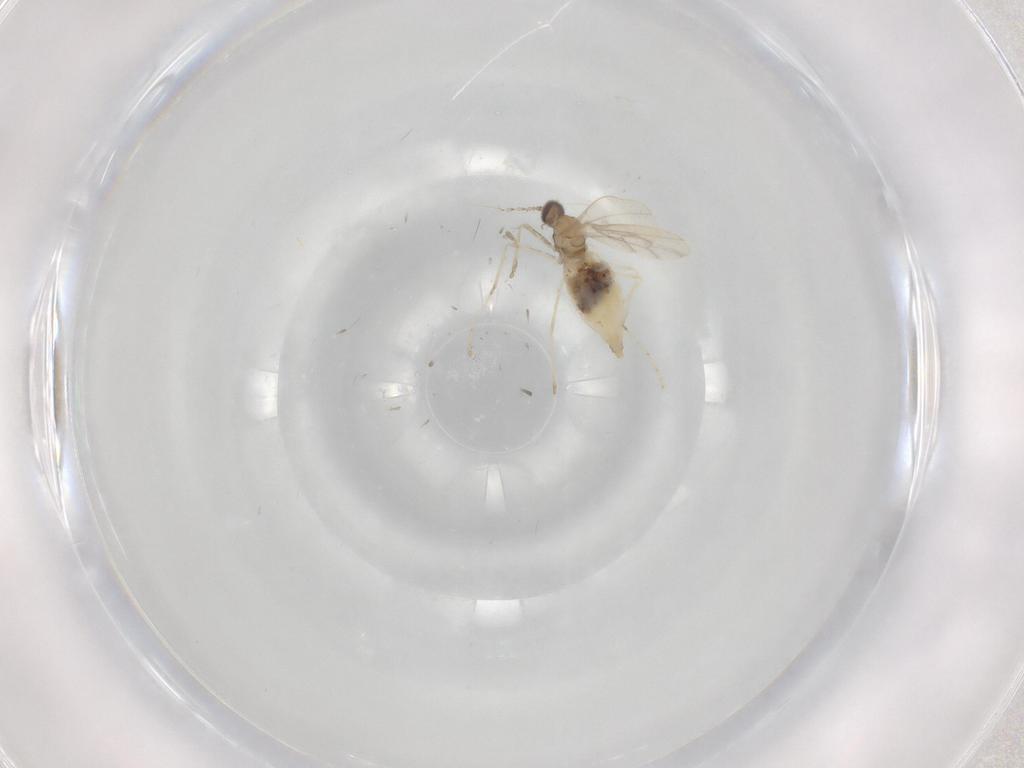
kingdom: Animalia
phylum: Arthropoda
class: Insecta
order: Diptera
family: Cecidomyiidae
